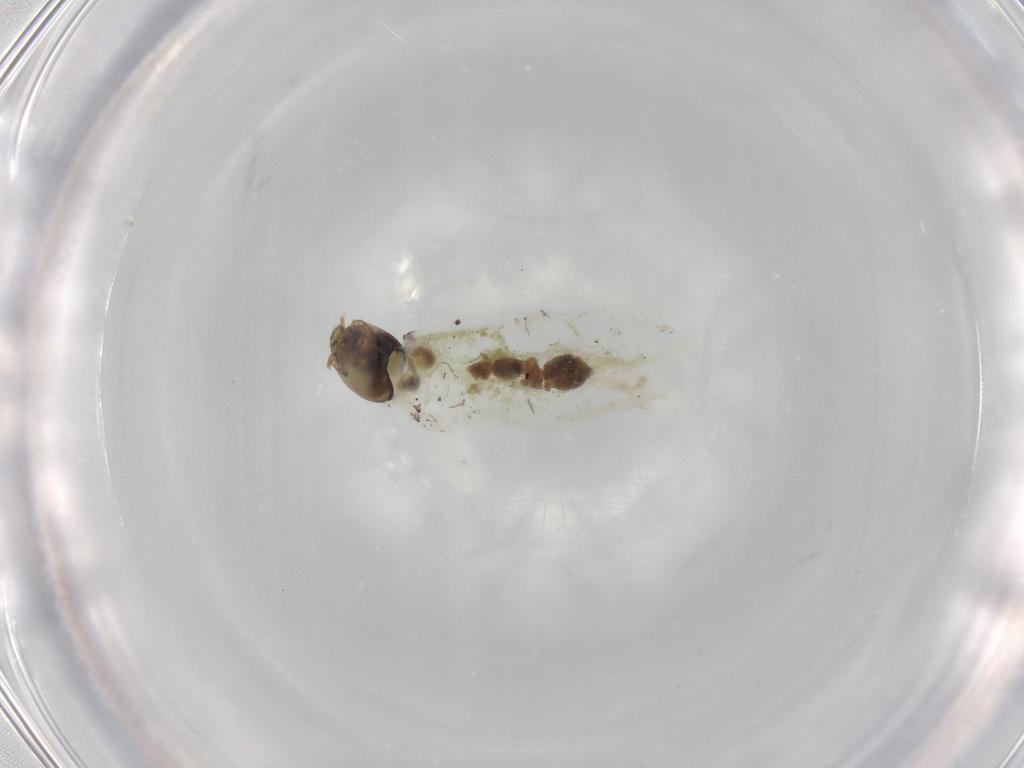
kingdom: Animalia
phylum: Arthropoda
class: Insecta
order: Diptera
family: Chironomidae
